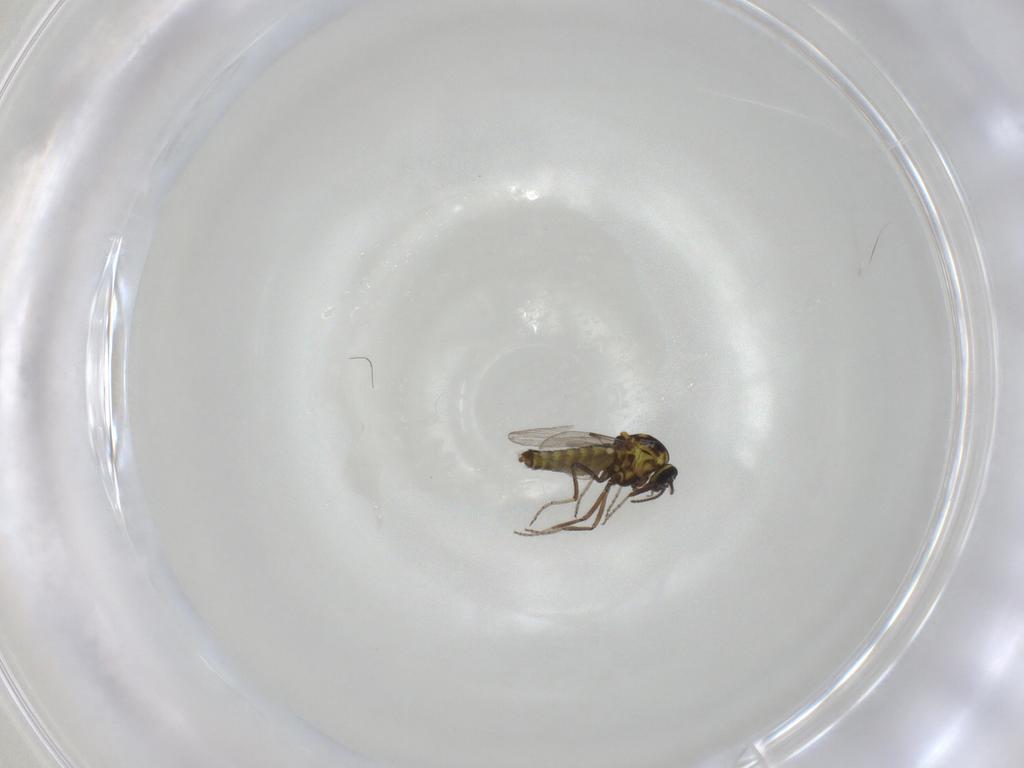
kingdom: Animalia
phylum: Arthropoda
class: Insecta
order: Diptera
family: Ceratopogonidae
